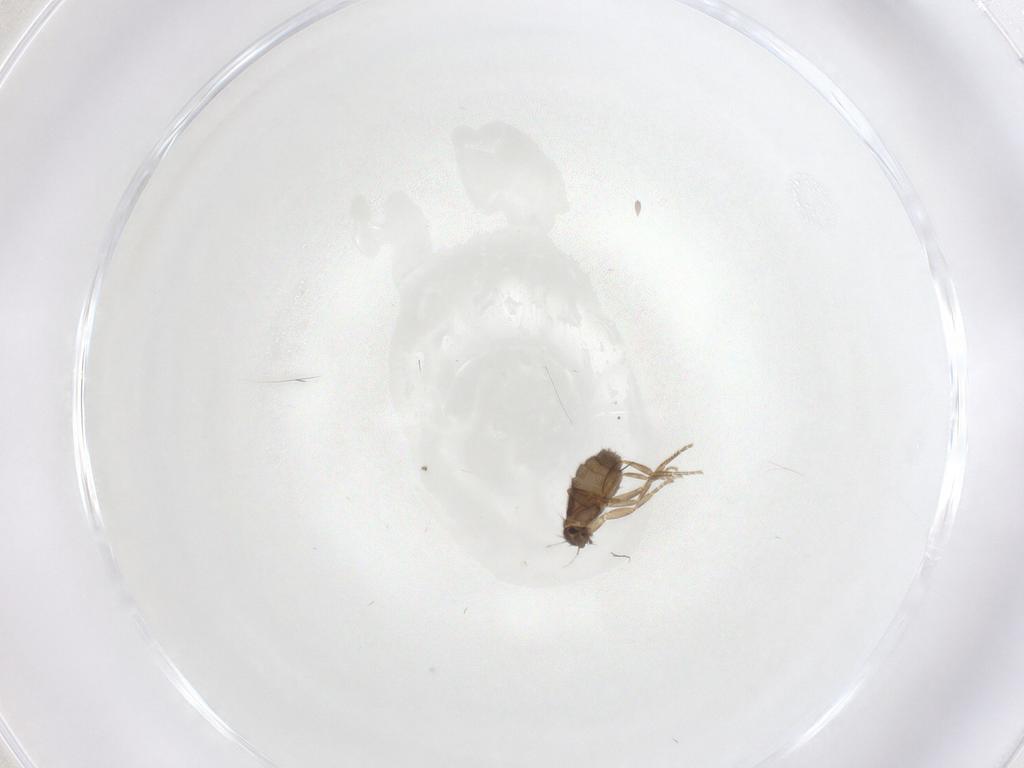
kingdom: Animalia
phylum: Arthropoda
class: Insecta
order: Diptera
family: Phoridae
